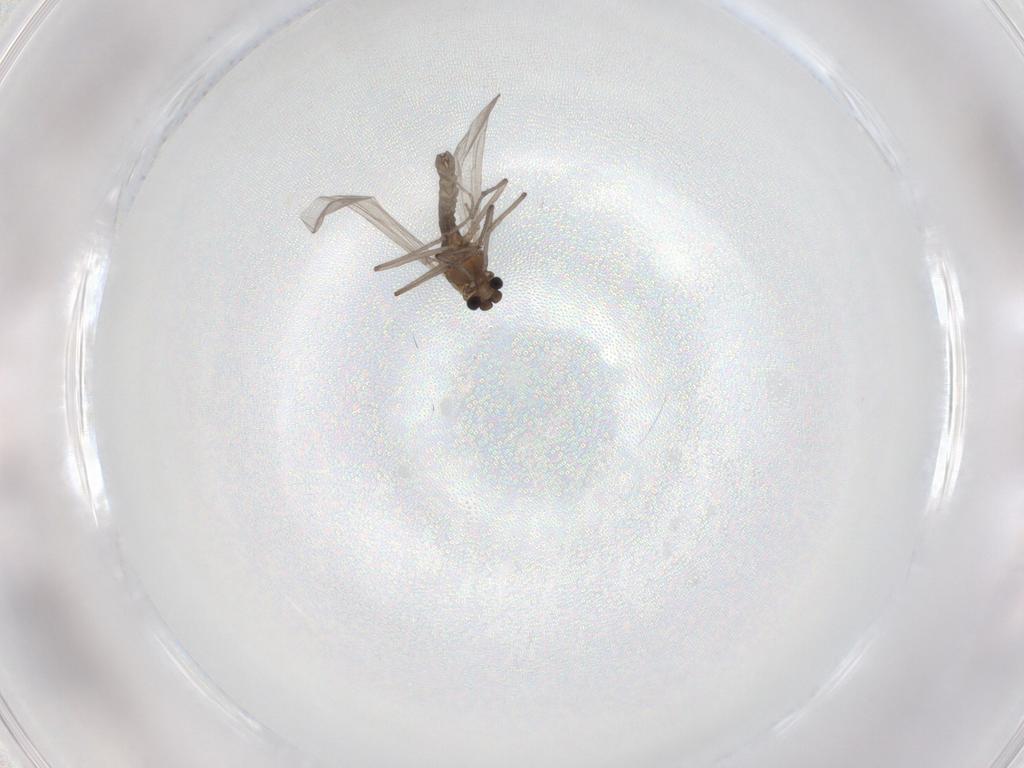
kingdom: Animalia
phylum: Arthropoda
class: Insecta
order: Diptera
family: Chironomidae
